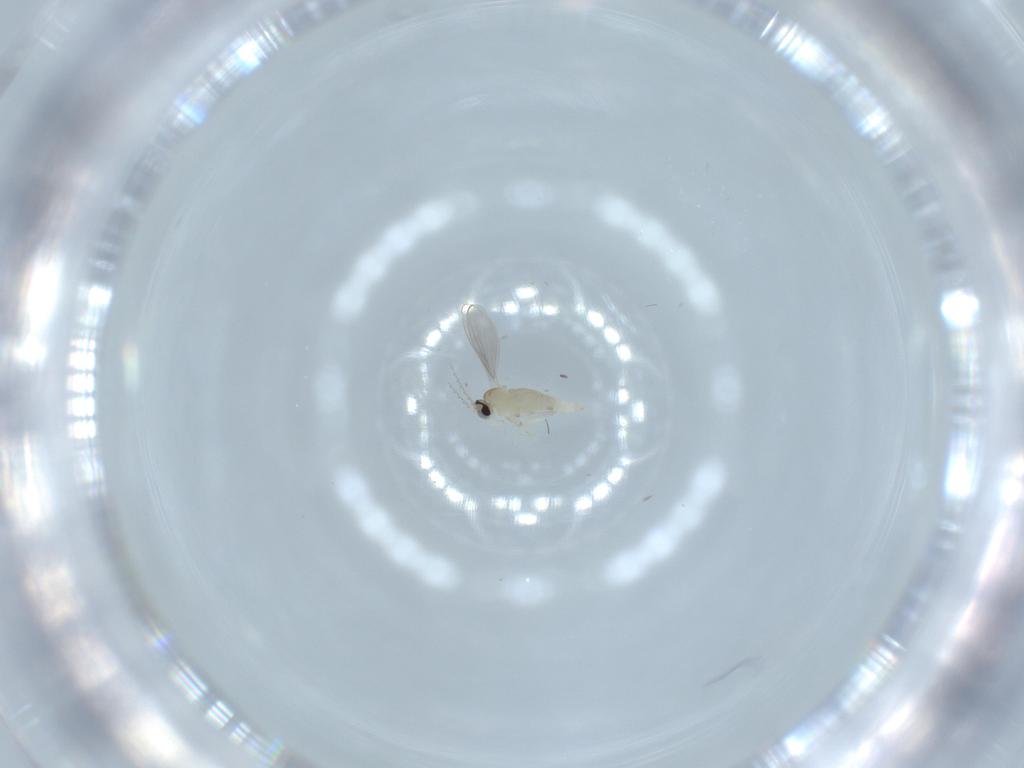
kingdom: Animalia
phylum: Arthropoda
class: Insecta
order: Diptera
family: Cecidomyiidae
